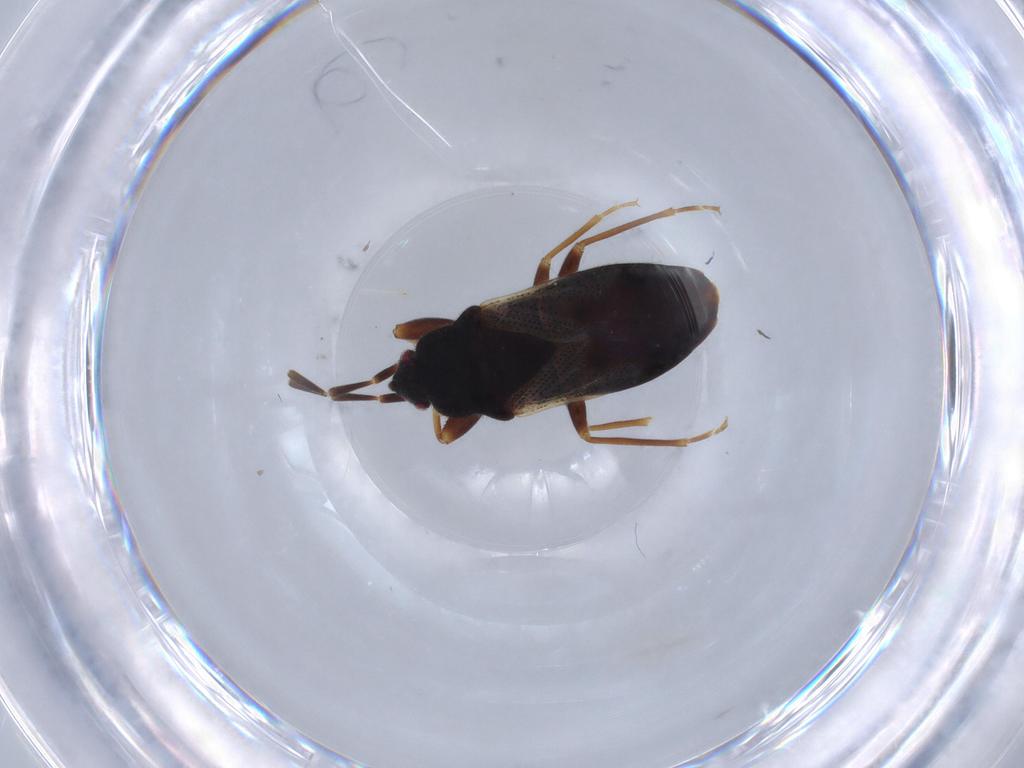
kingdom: Animalia
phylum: Arthropoda
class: Insecta
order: Hemiptera
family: Rhyparochromidae
